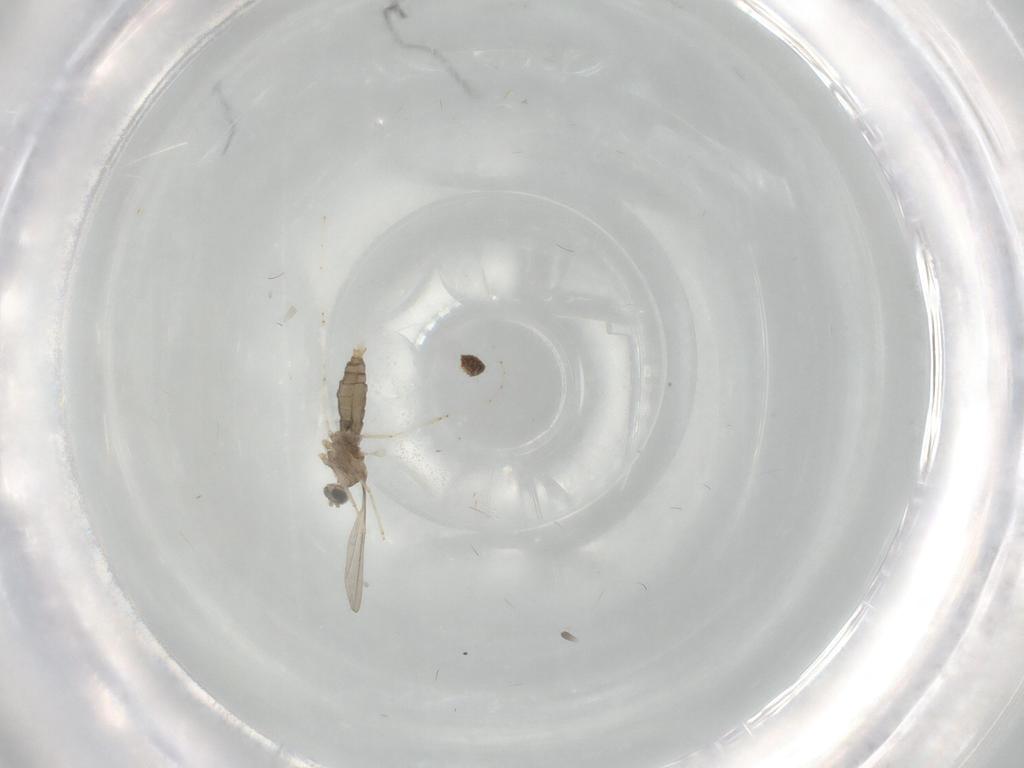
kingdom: Animalia
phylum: Arthropoda
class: Insecta
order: Diptera
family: Cecidomyiidae
